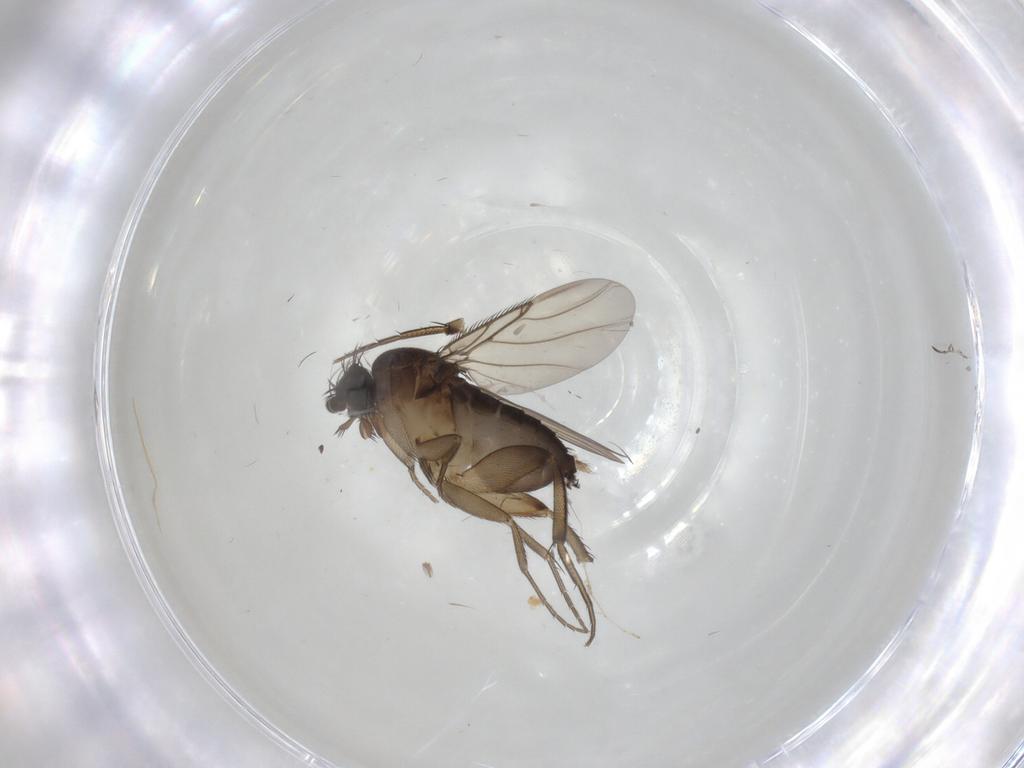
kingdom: Animalia
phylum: Arthropoda
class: Insecta
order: Diptera
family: Phoridae
